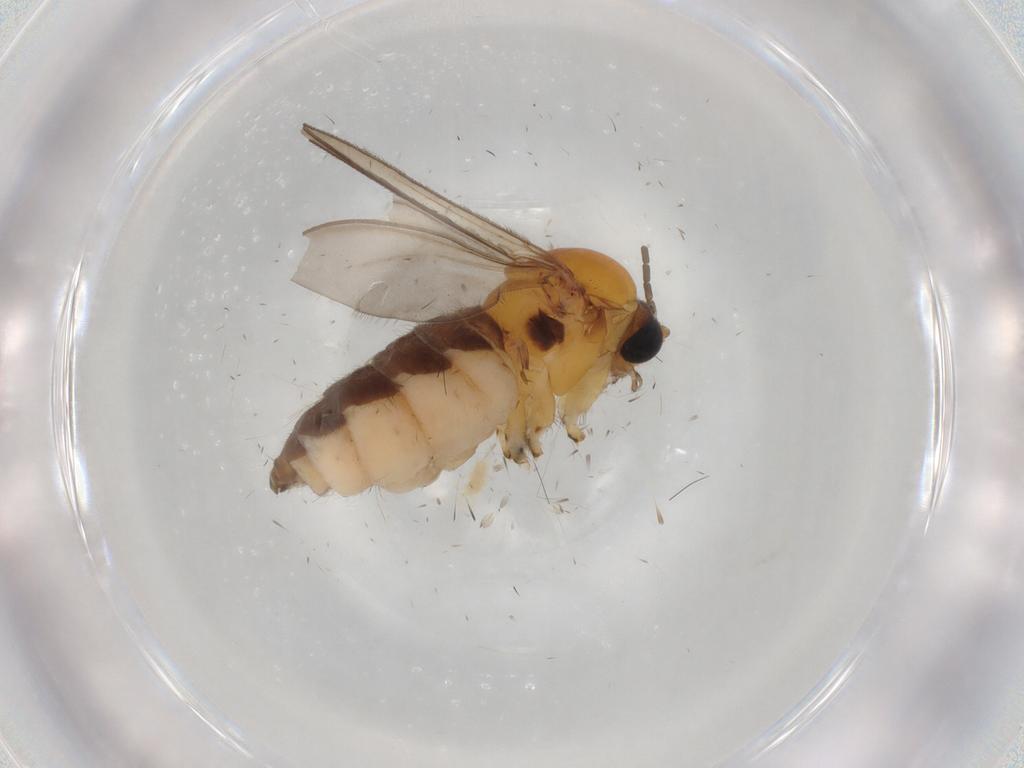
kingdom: Animalia
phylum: Arthropoda
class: Insecta
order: Diptera
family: Sciaridae
